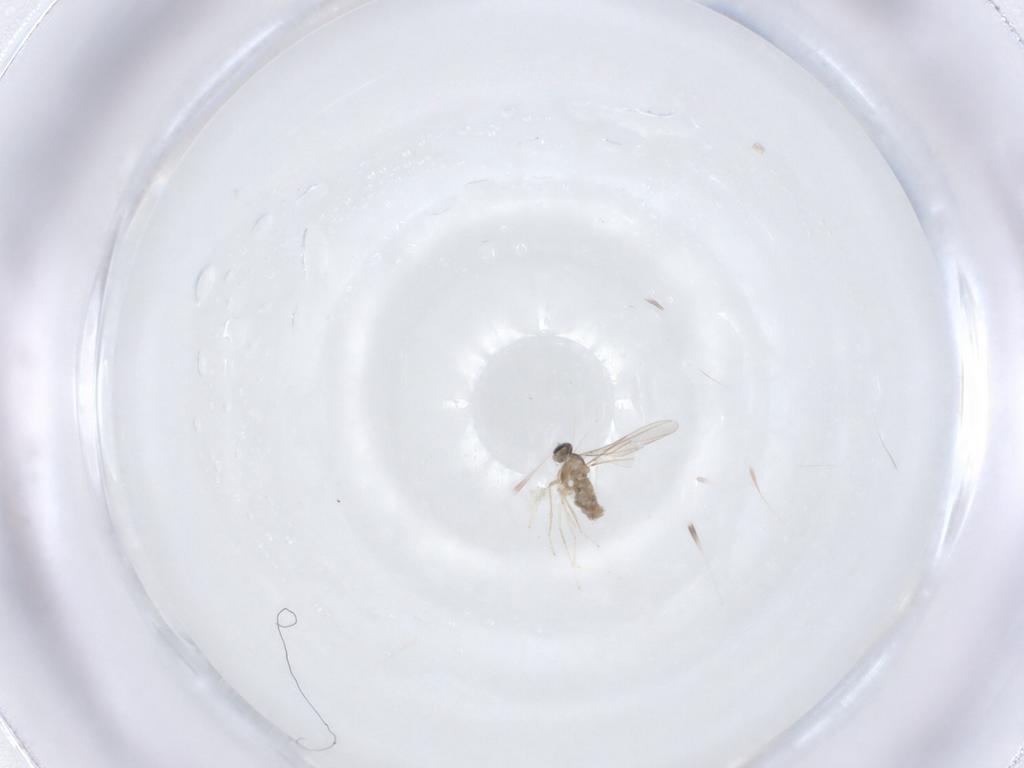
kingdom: Animalia
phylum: Arthropoda
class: Insecta
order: Diptera
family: Cecidomyiidae
